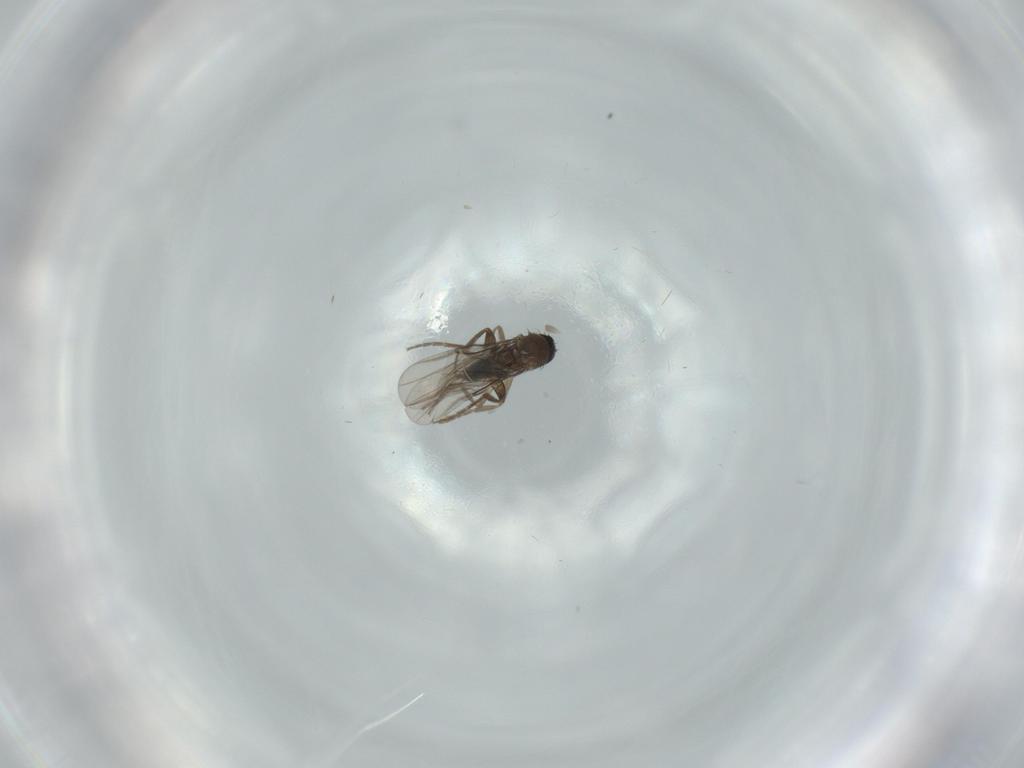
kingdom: Animalia
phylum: Arthropoda
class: Insecta
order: Diptera
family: Phoridae
